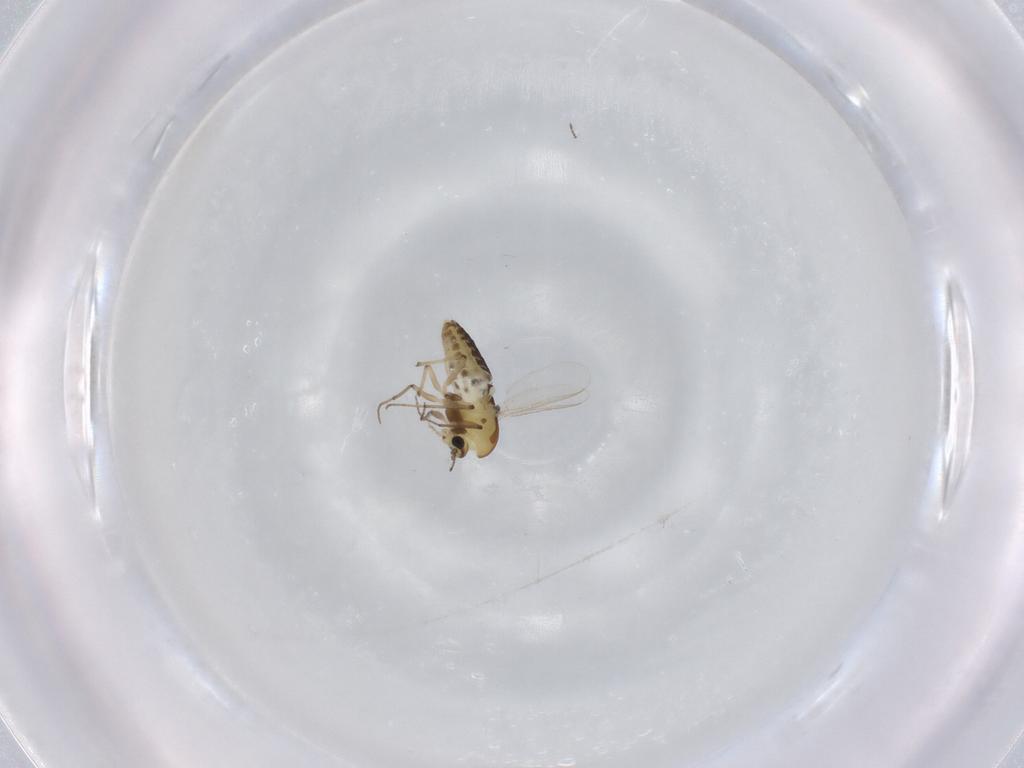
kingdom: Animalia
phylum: Arthropoda
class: Insecta
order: Diptera
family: Chironomidae
